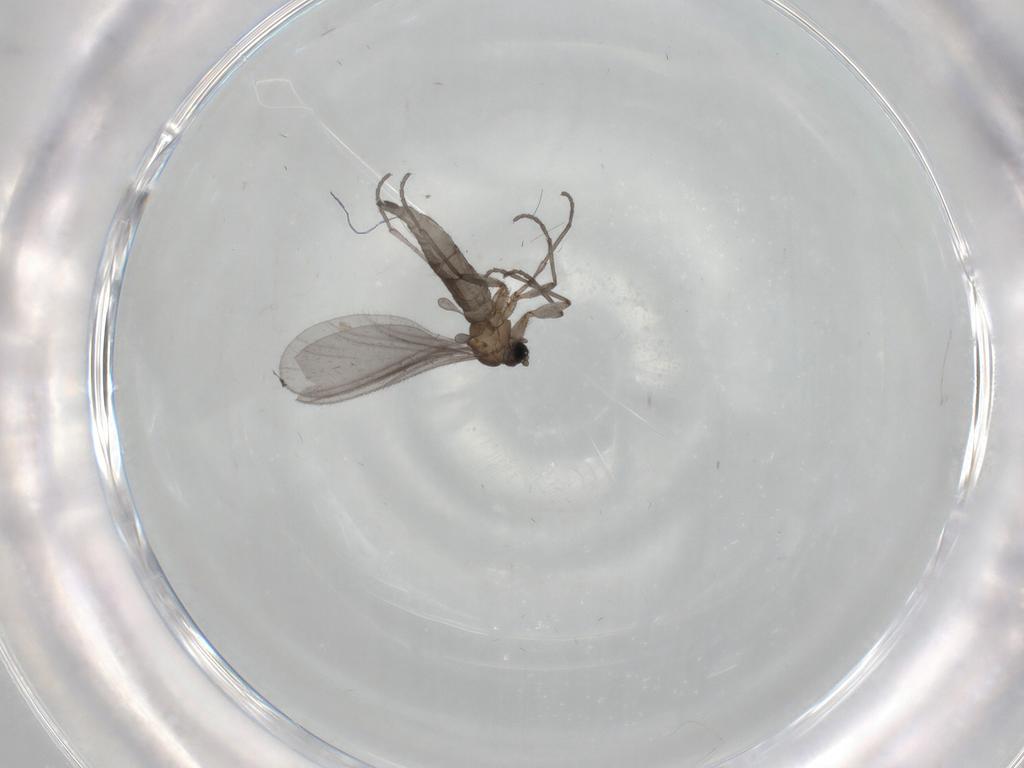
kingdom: Animalia
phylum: Arthropoda
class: Insecta
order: Diptera
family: Sciaridae
